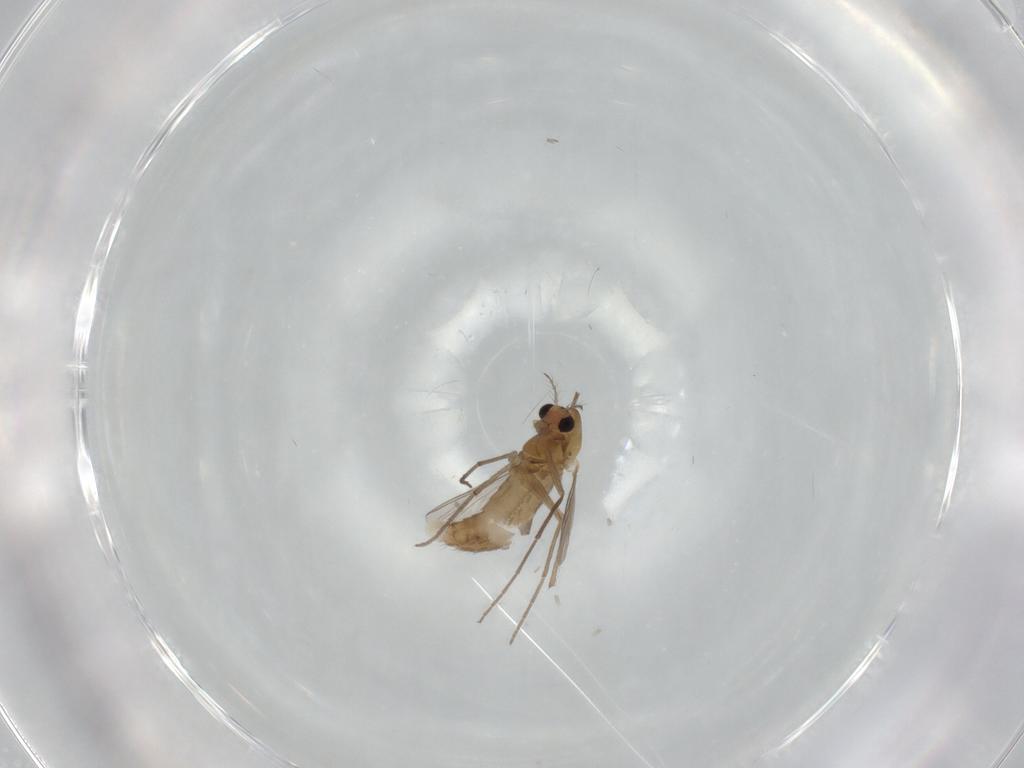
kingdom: Animalia
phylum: Arthropoda
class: Insecta
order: Diptera
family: Chironomidae
